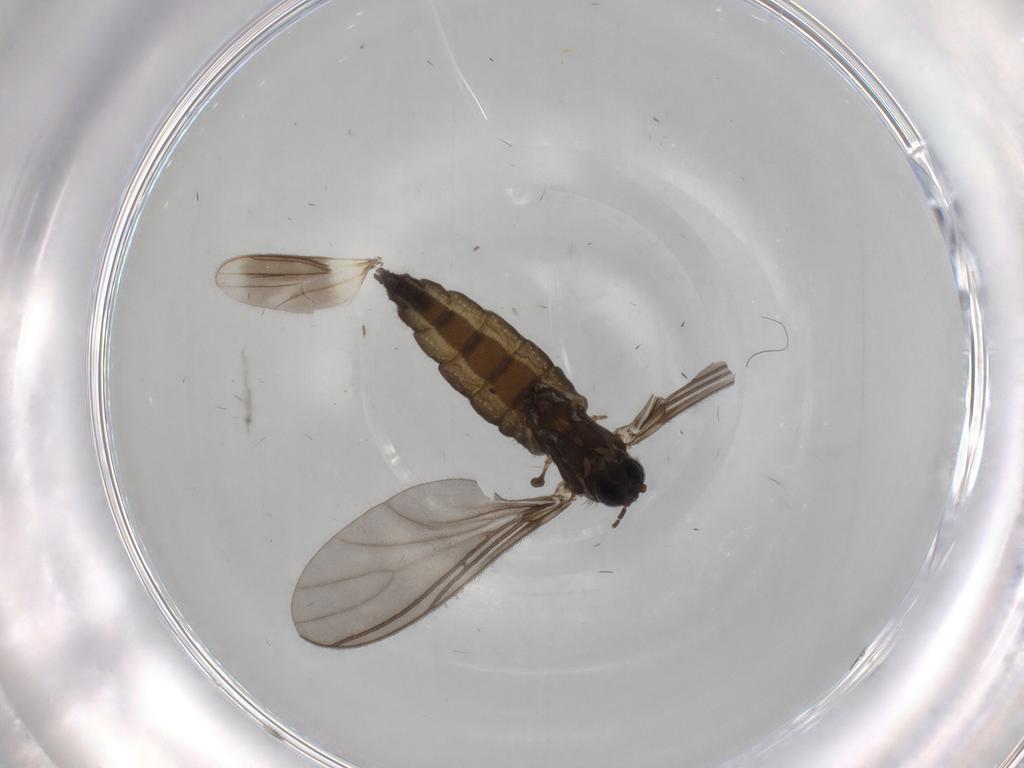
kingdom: Animalia
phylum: Arthropoda
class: Insecta
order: Diptera
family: Hybotidae
